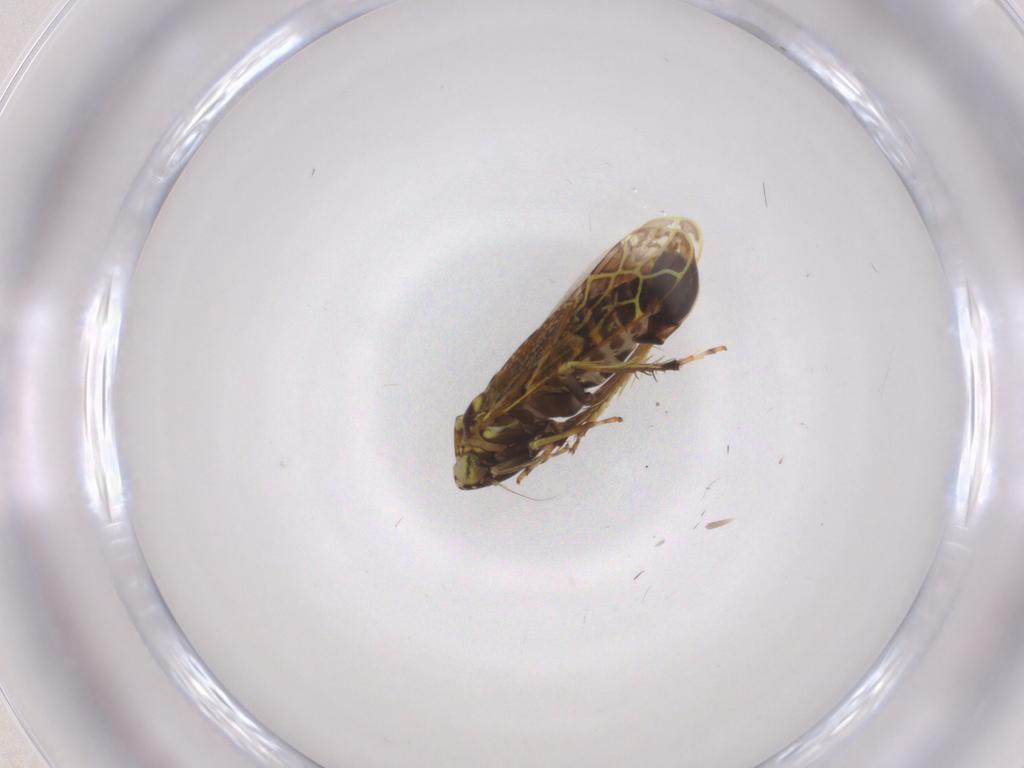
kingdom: Animalia
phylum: Arthropoda
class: Insecta
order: Hemiptera
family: Cicadellidae
